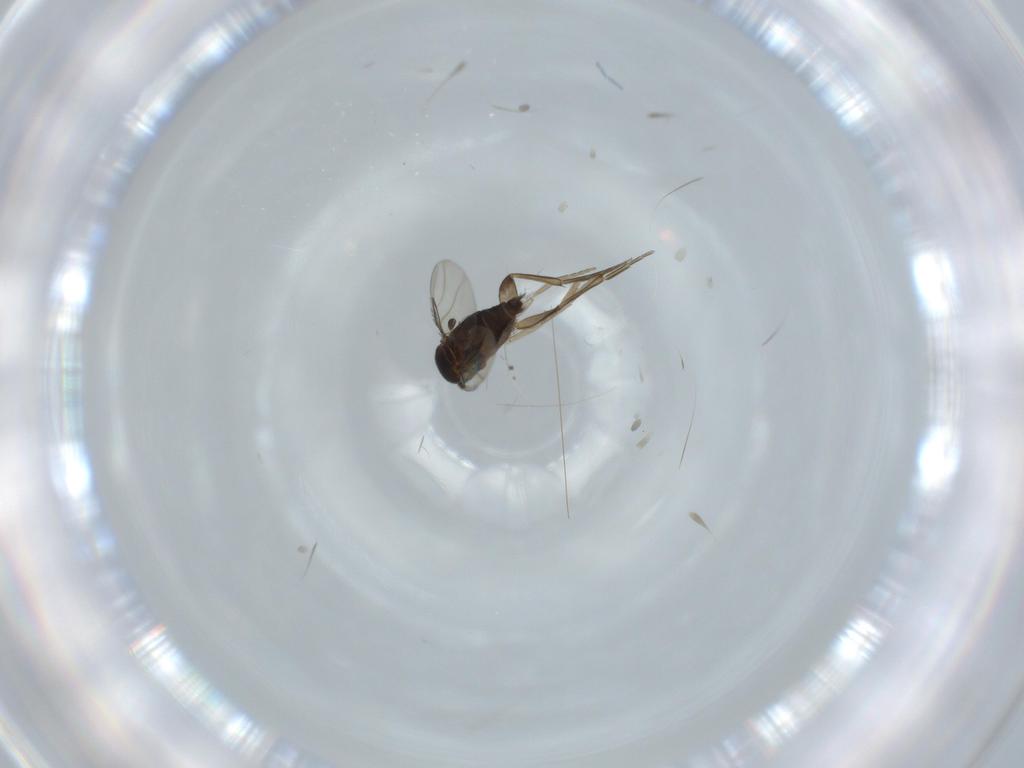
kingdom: Animalia
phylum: Arthropoda
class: Insecta
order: Diptera
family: Phoridae
